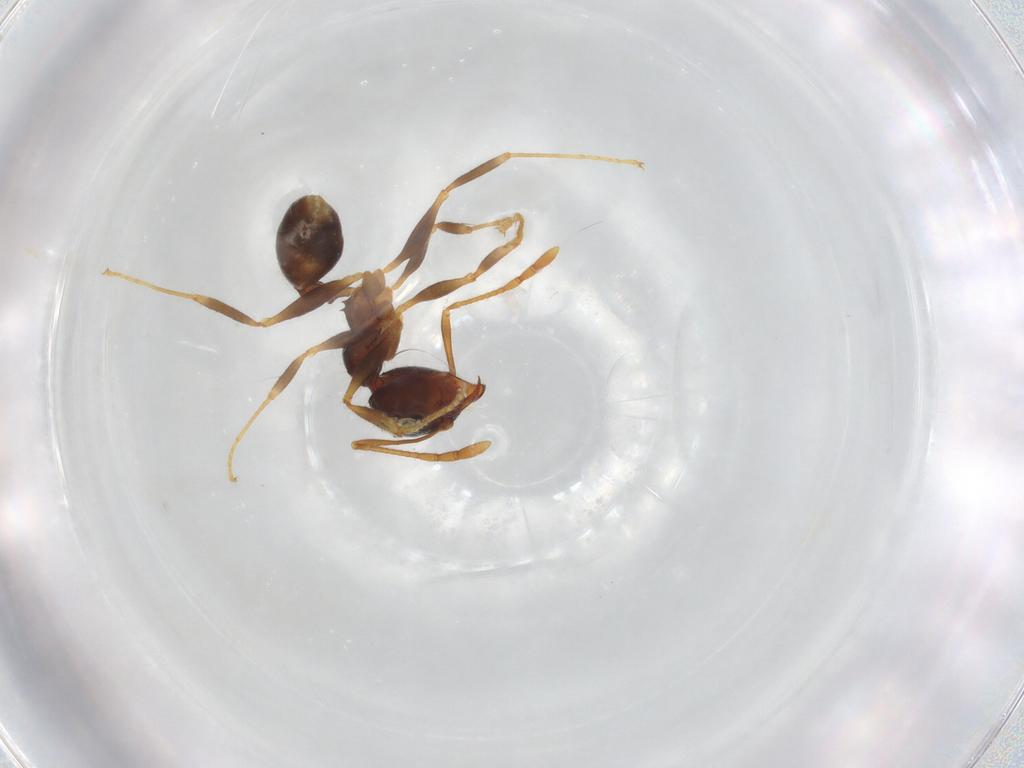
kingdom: Animalia
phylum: Arthropoda
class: Insecta
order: Hymenoptera
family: Formicidae
